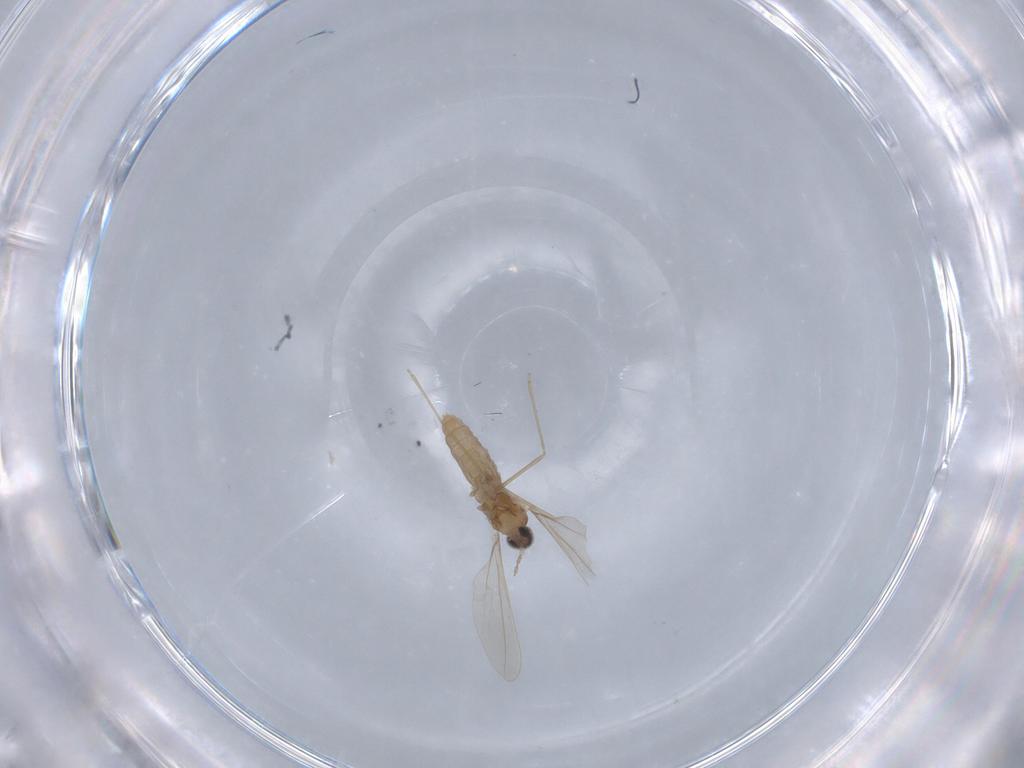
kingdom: Animalia
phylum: Arthropoda
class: Insecta
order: Diptera
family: Cecidomyiidae
